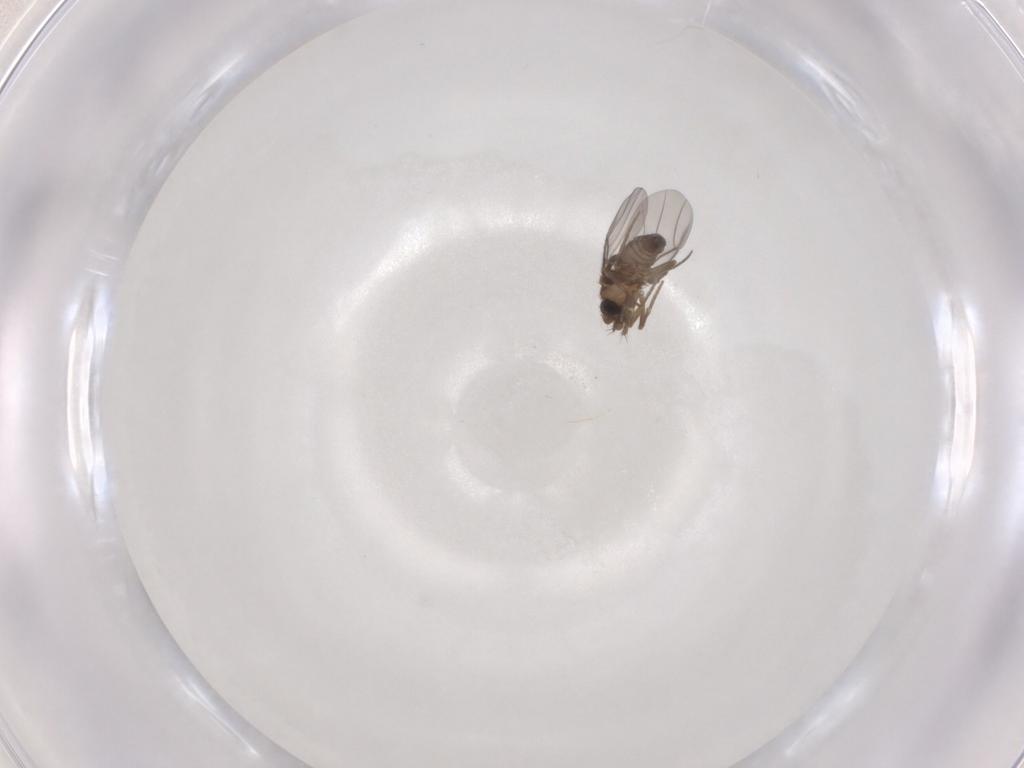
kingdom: Animalia
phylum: Arthropoda
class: Insecta
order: Diptera
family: Phoridae
